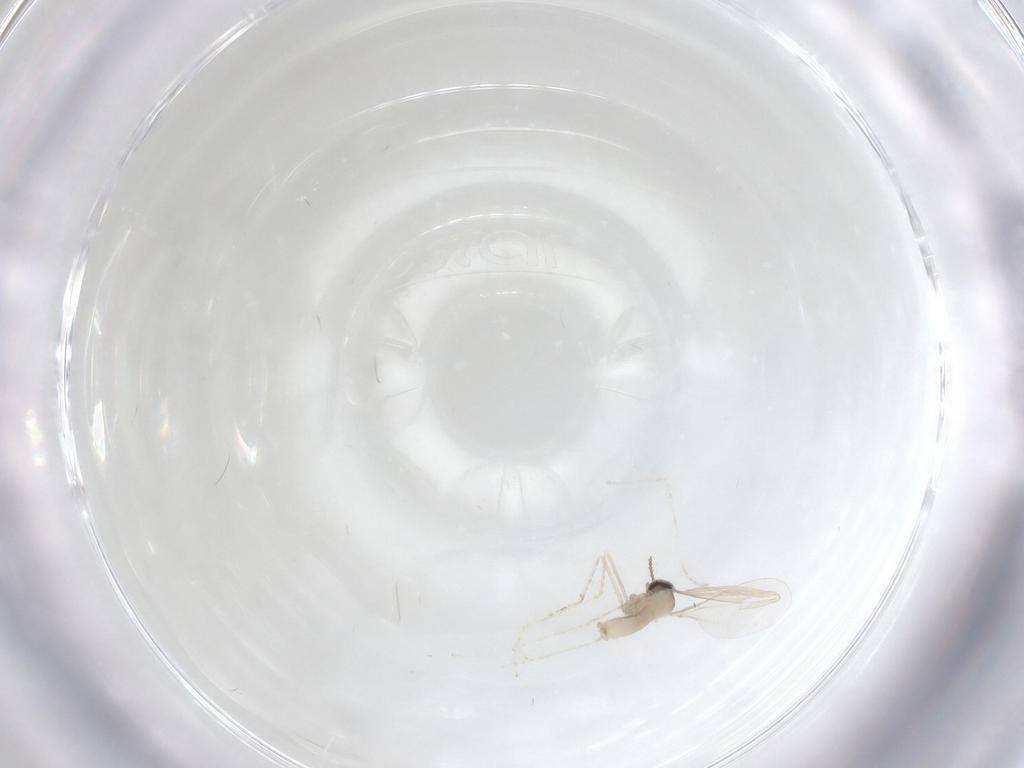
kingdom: Animalia
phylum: Arthropoda
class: Insecta
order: Diptera
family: Cecidomyiidae
